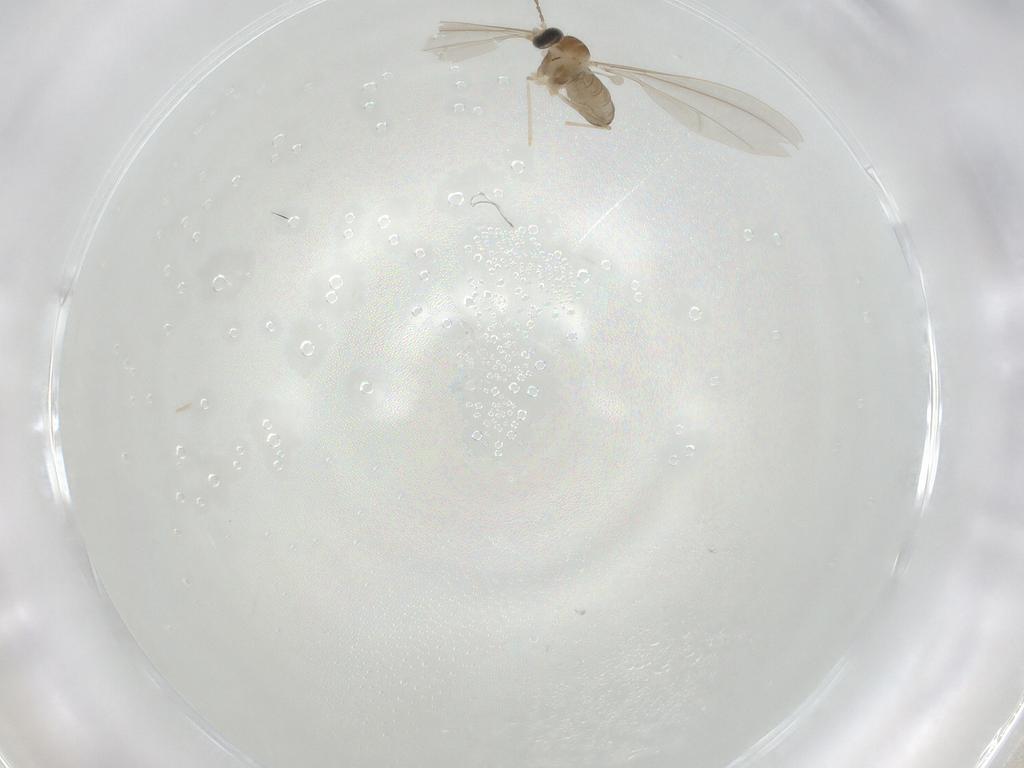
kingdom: Animalia
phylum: Arthropoda
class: Insecta
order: Diptera
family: Cecidomyiidae
